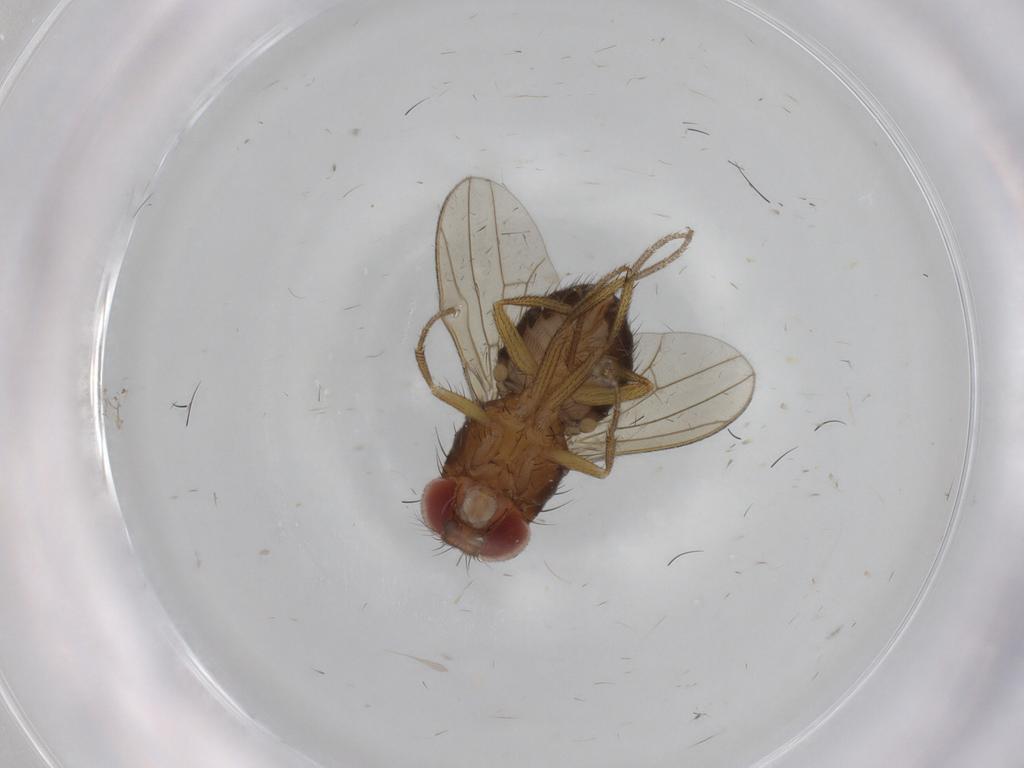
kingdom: Animalia
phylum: Arthropoda
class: Insecta
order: Diptera
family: Drosophilidae
